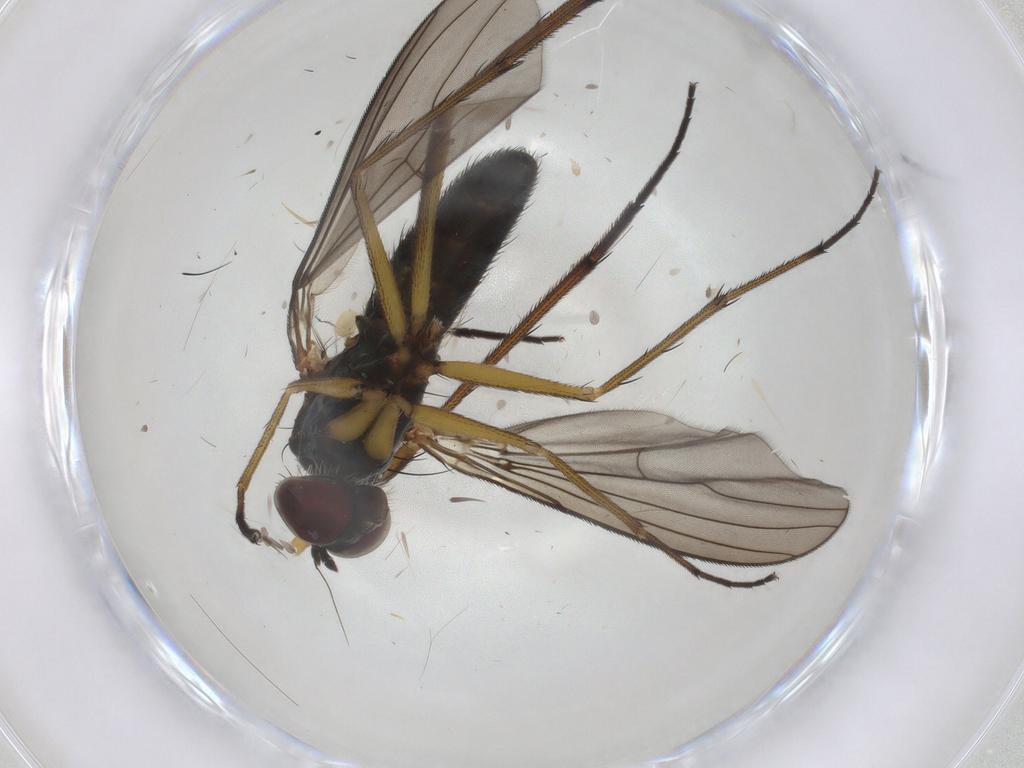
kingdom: Animalia
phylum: Arthropoda
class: Insecta
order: Diptera
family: Dolichopodidae
